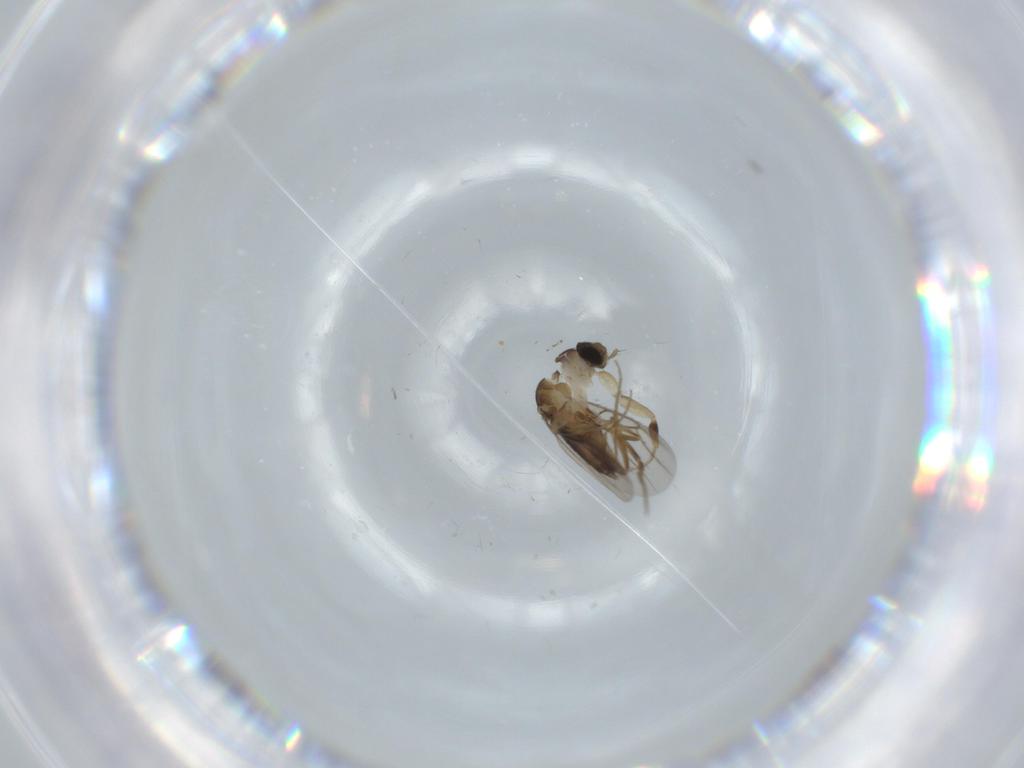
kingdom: Animalia
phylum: Arthropoda
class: Insecta
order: Diptera
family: Phoridae
